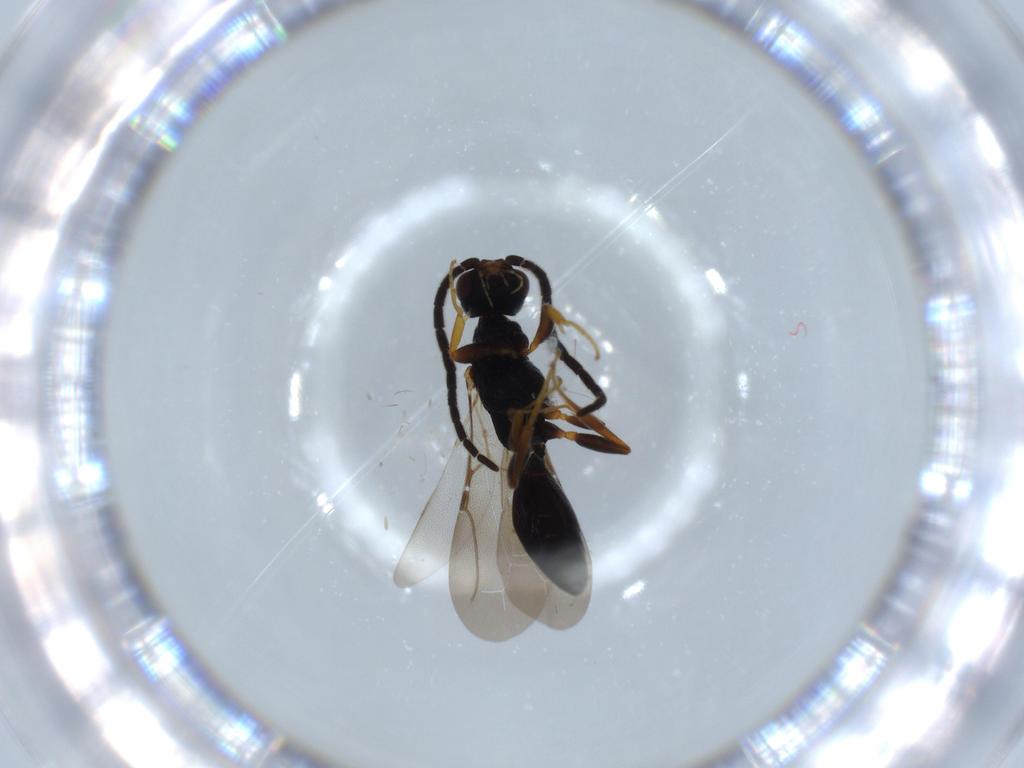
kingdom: Animalia
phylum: Arthropoda
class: Insecta
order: Hymenoptera
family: Bethylidae
